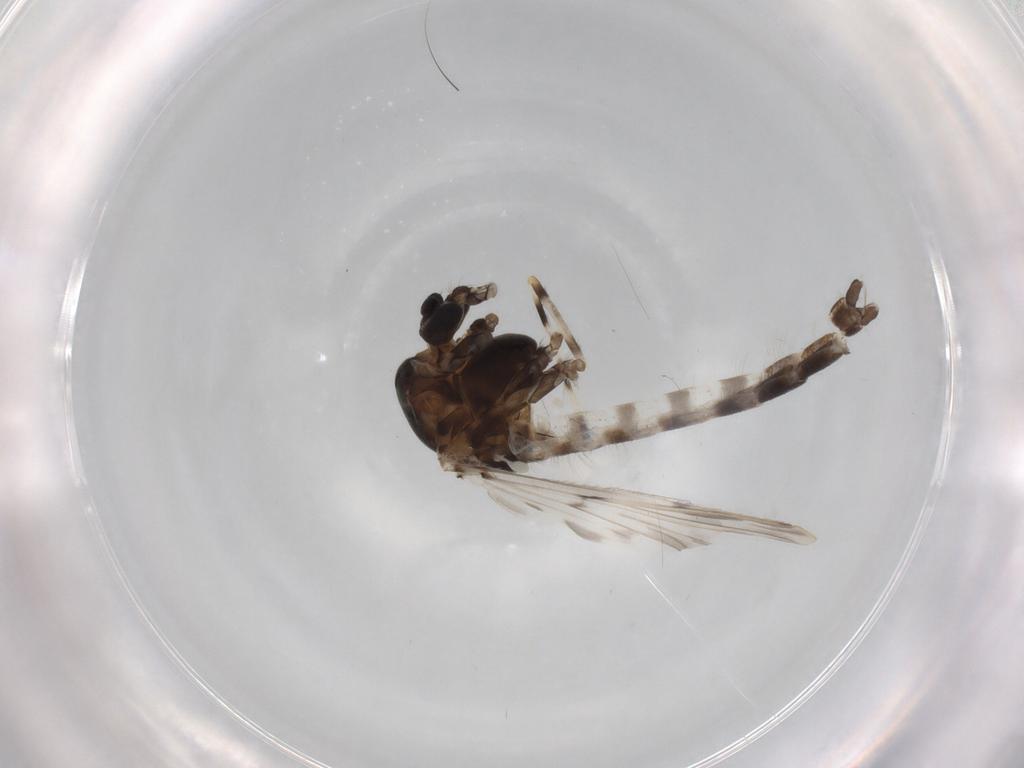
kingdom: Animalia
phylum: Arthropoda
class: Insecta
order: Diptera
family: Chironomidae
